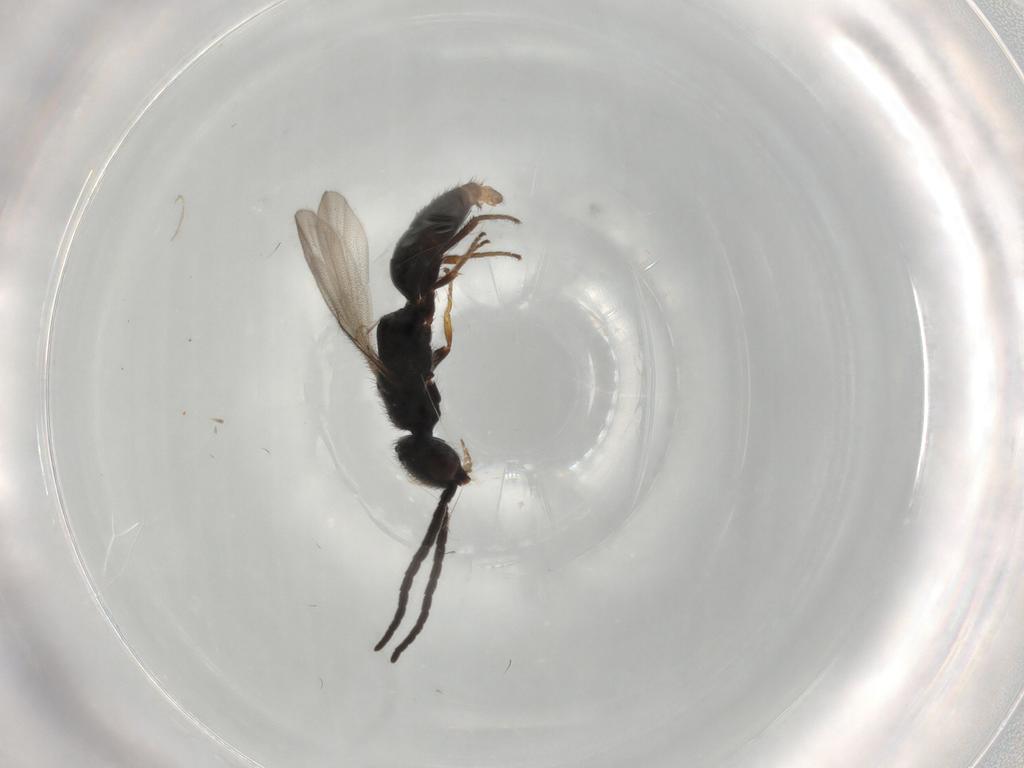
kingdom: Animalia
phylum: Arthropoda
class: Insecta
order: Hymenoptera
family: Bethylidae
